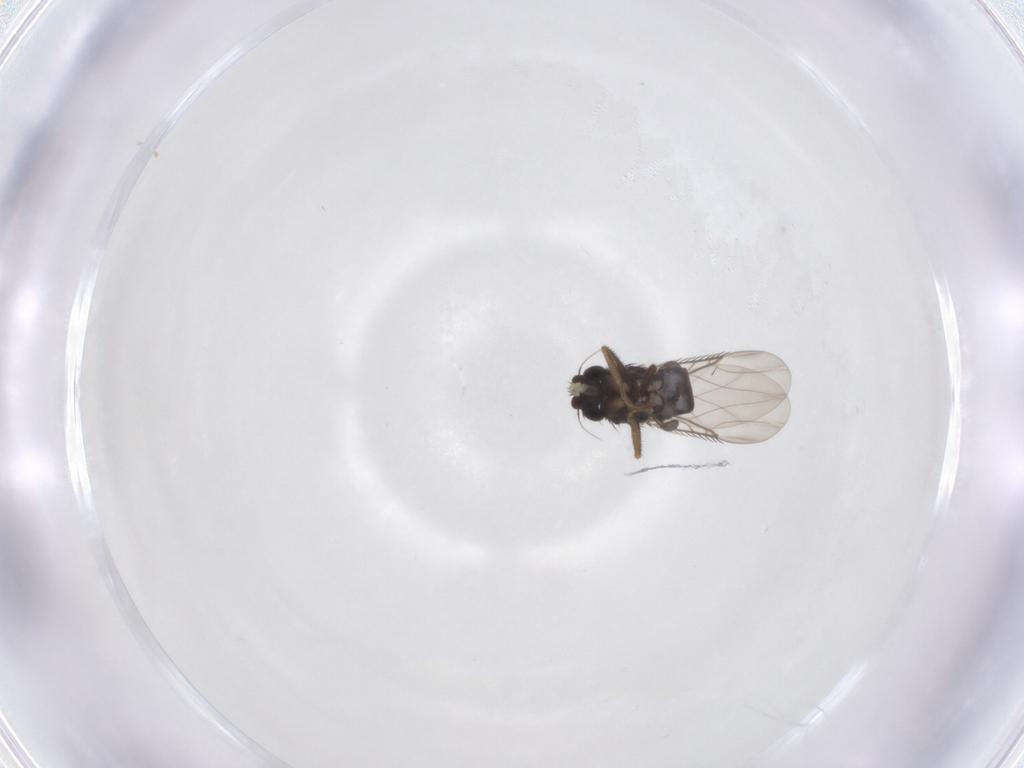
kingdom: Animalia
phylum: Arthropoda
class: Insecta
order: Diptera
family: Phoridae
